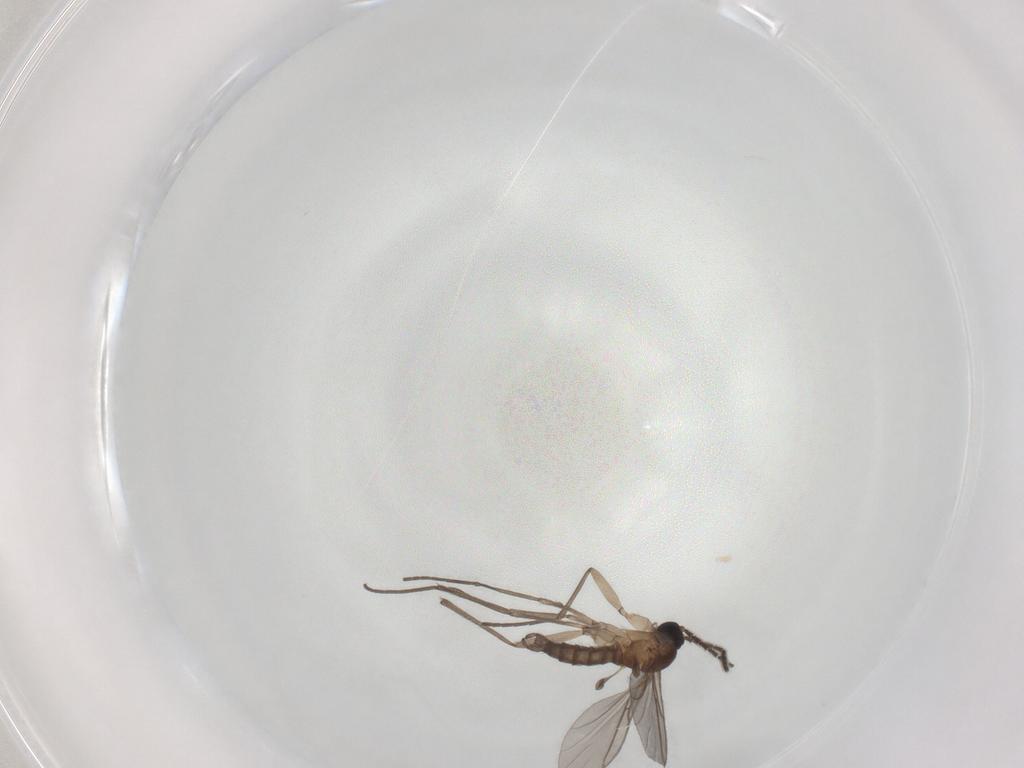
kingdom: Animalia
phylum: Arthropoda
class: Insecta
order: Diptera
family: Sciaridae
